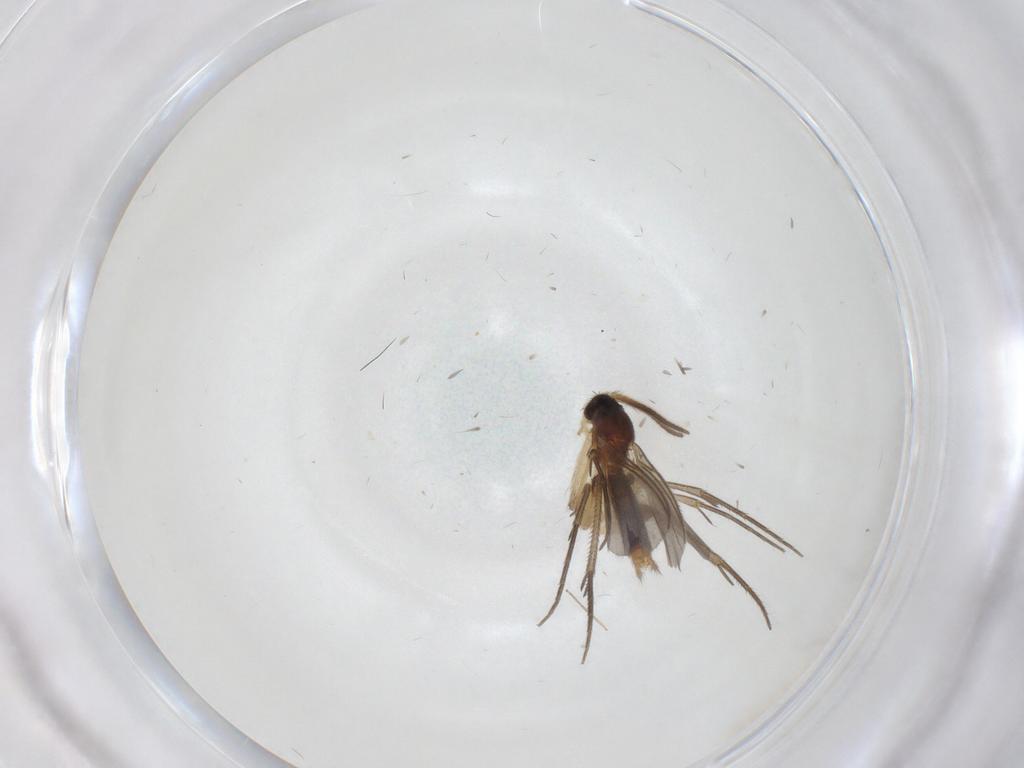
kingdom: Animalia
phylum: Arthropoda
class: Insecta
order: Diptera
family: Mycetophilidae
